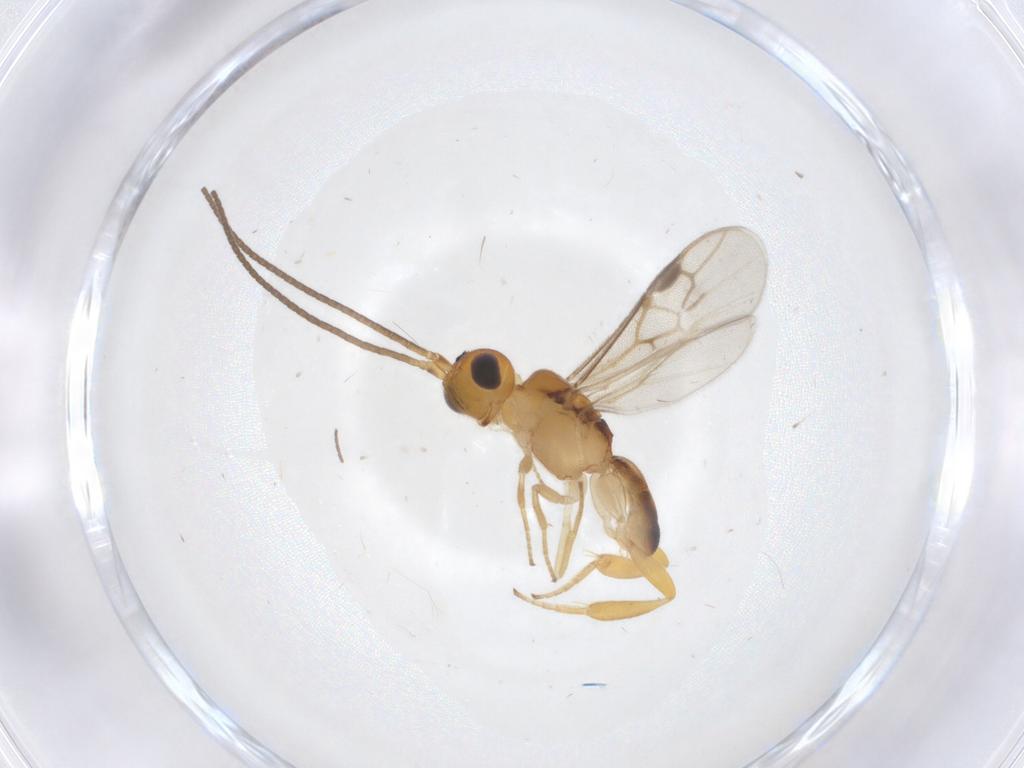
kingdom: Animalia
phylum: Arthropoda
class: Insecta
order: Hymenoptera
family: Braconidae
